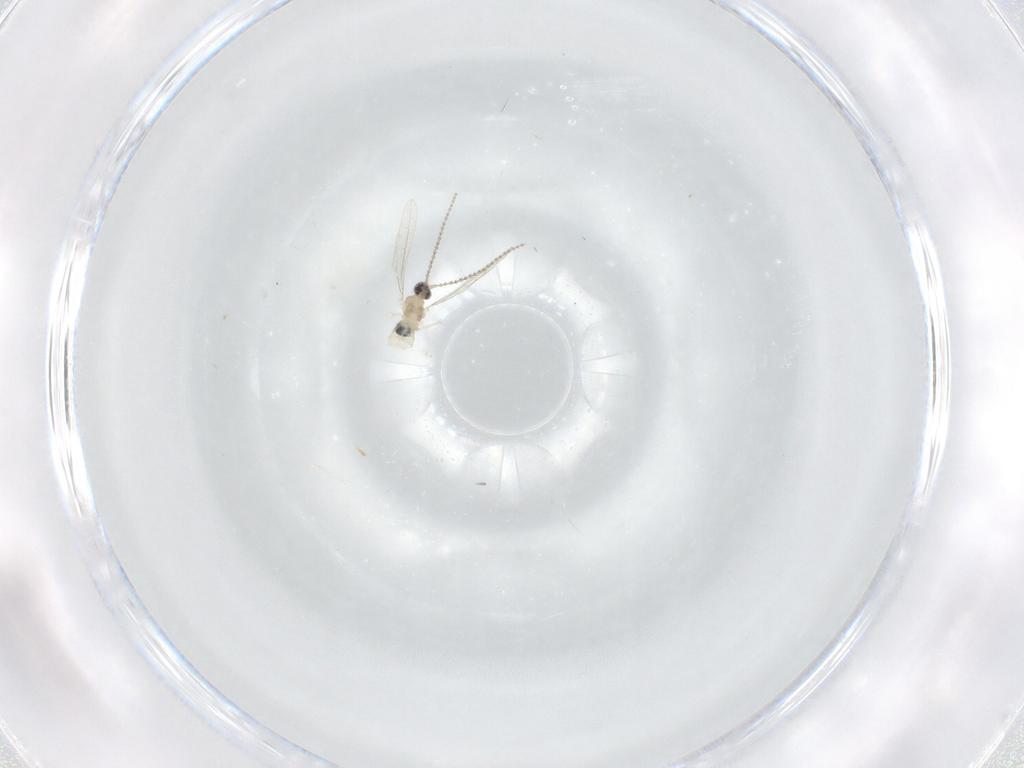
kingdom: Animalia
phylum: Arthropoda
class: Insecta
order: Diptera
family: Cecidomyiidae
